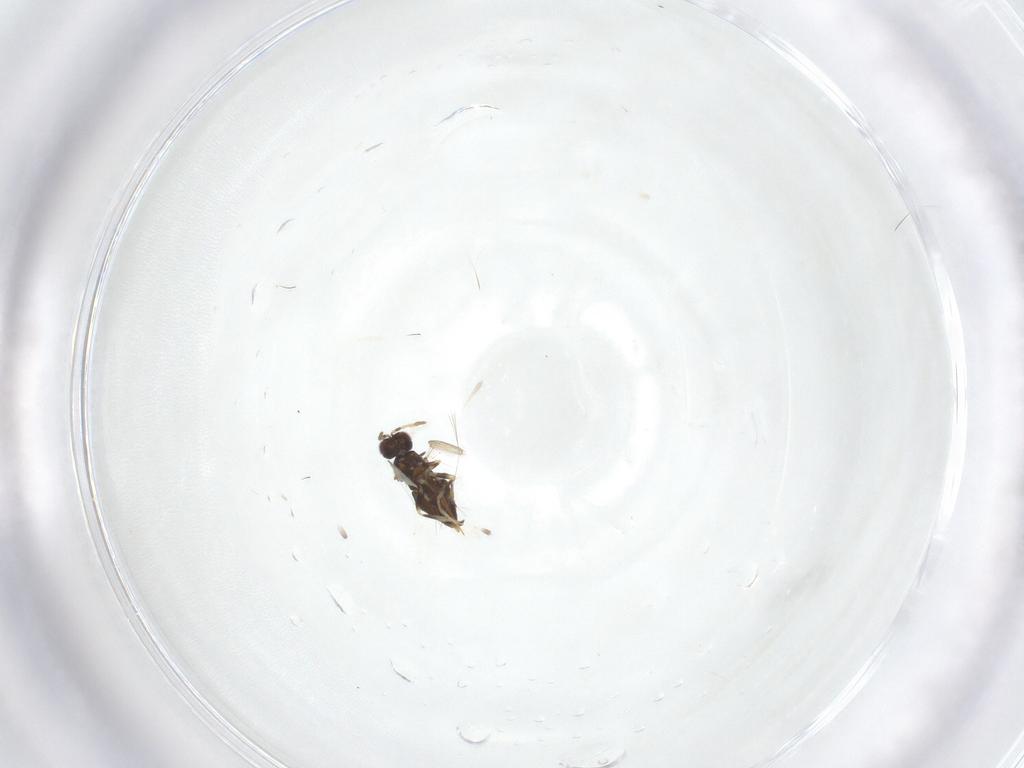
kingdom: Animalia
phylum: Arthropoda
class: Insecta
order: Hymenoptera
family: Aphelinidae
